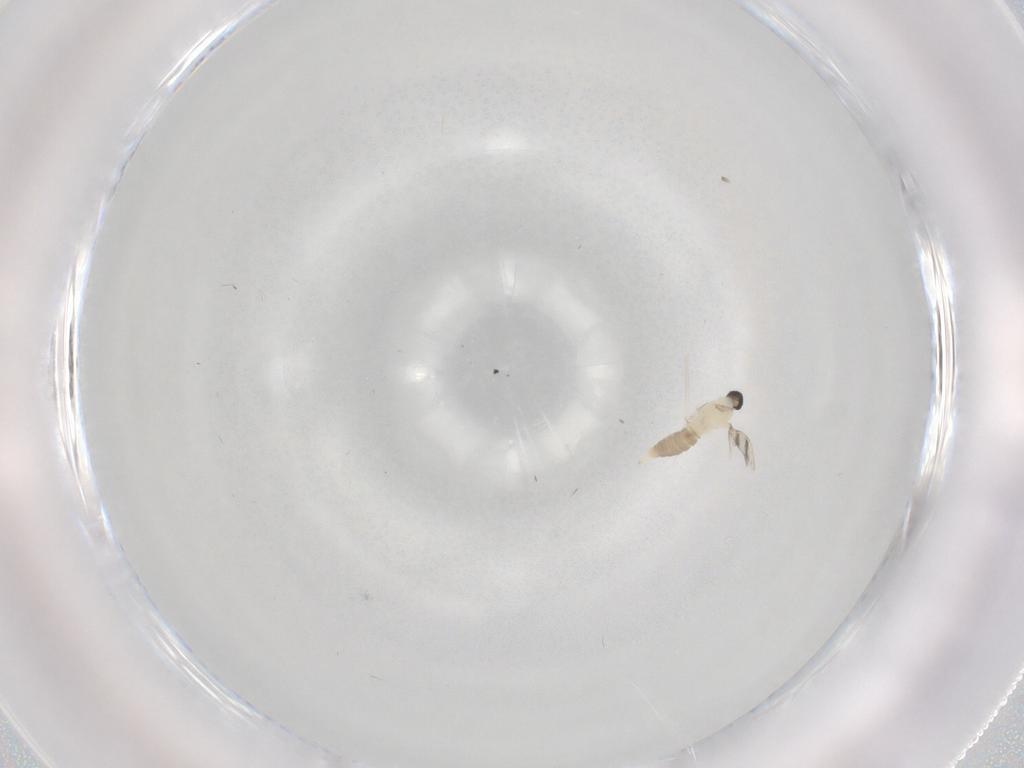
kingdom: Animalia
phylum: Arthropoda
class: Insecta
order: Diptera
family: Cecidomyiidae
